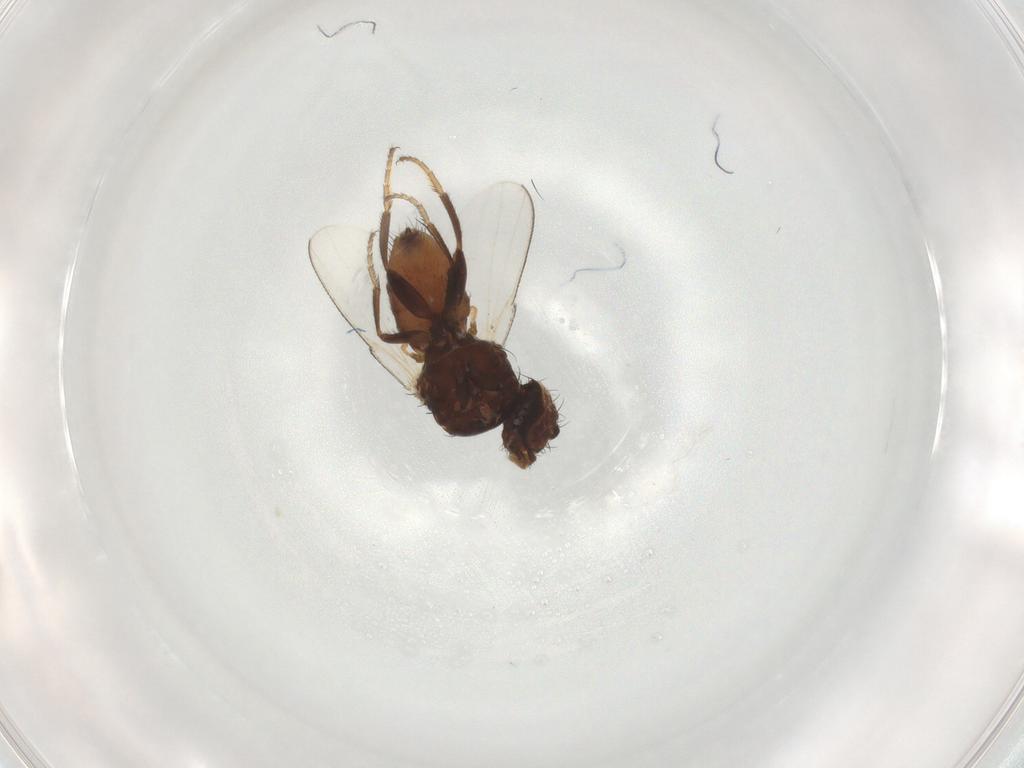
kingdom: Animalia
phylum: Arthropoda
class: Insecta
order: Diptera
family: Milichiidae
